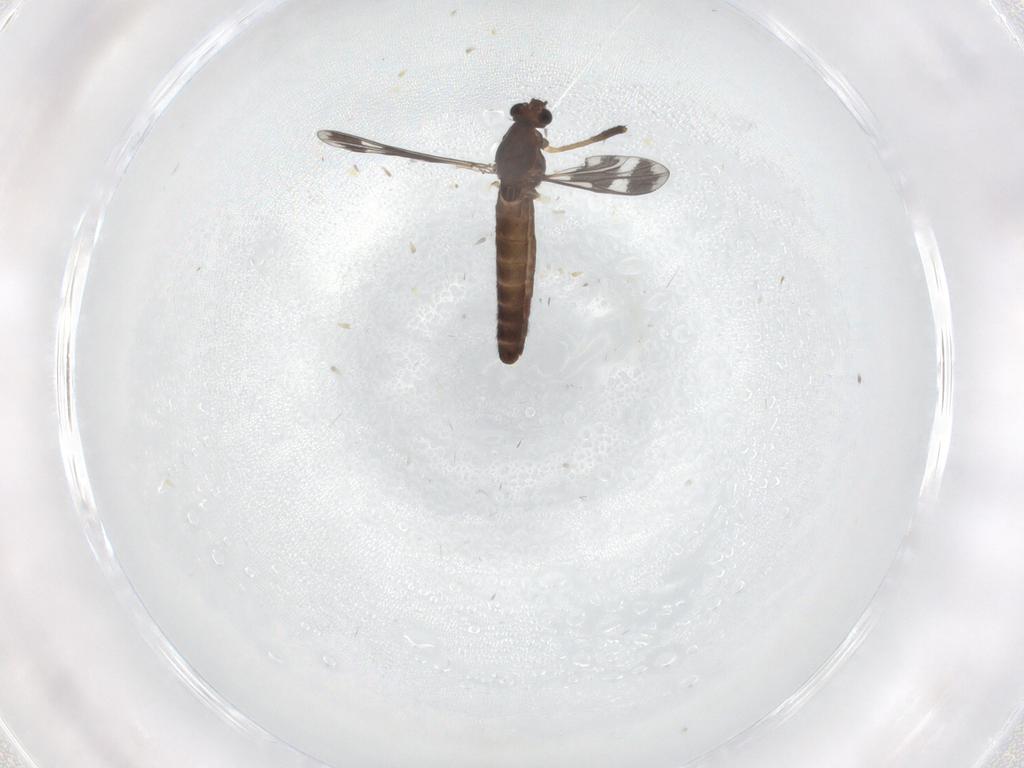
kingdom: Animalia
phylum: Arthropoda
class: Insecta
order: Diptera
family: Chironomidae
